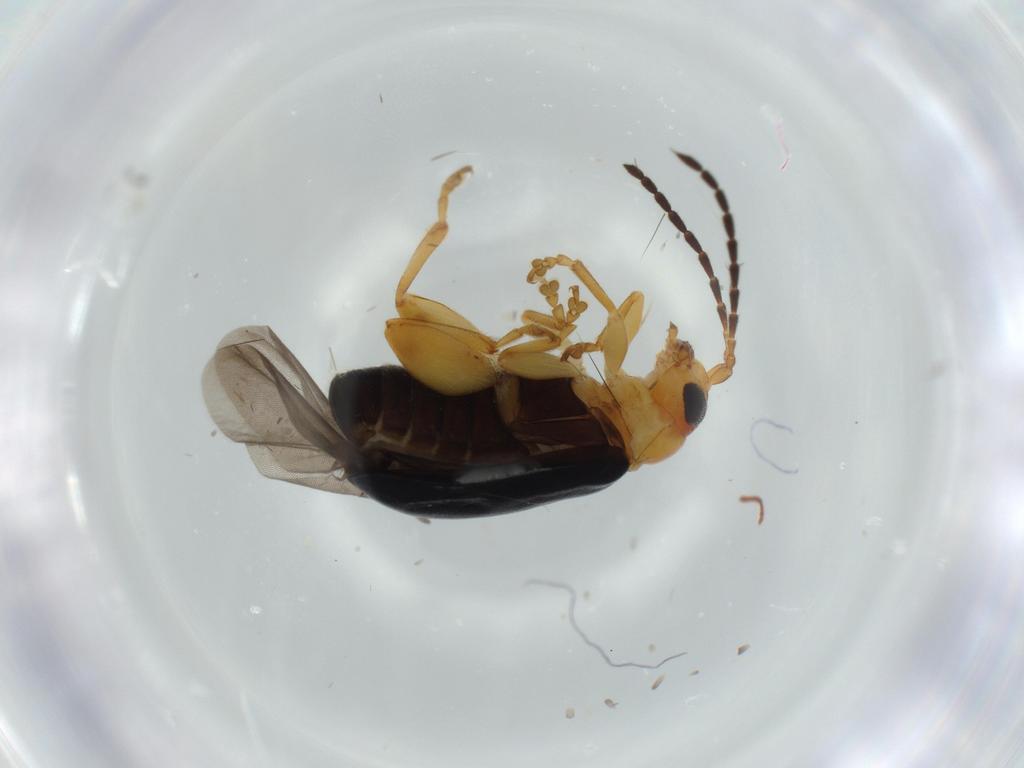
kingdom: Animalia
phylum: Arthropoda
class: Insecta
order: Coleoptera
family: Chrysomelidae
